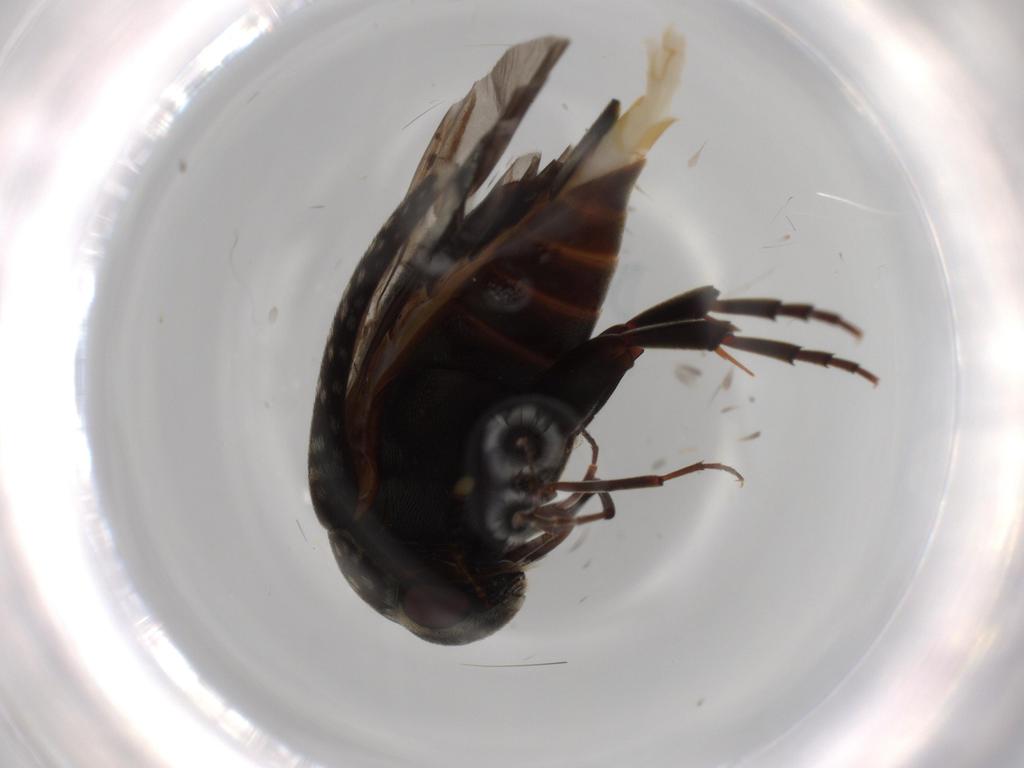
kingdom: Animalia
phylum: Arthropoda
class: Insecta
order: Coleoptera
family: Mordellidae
